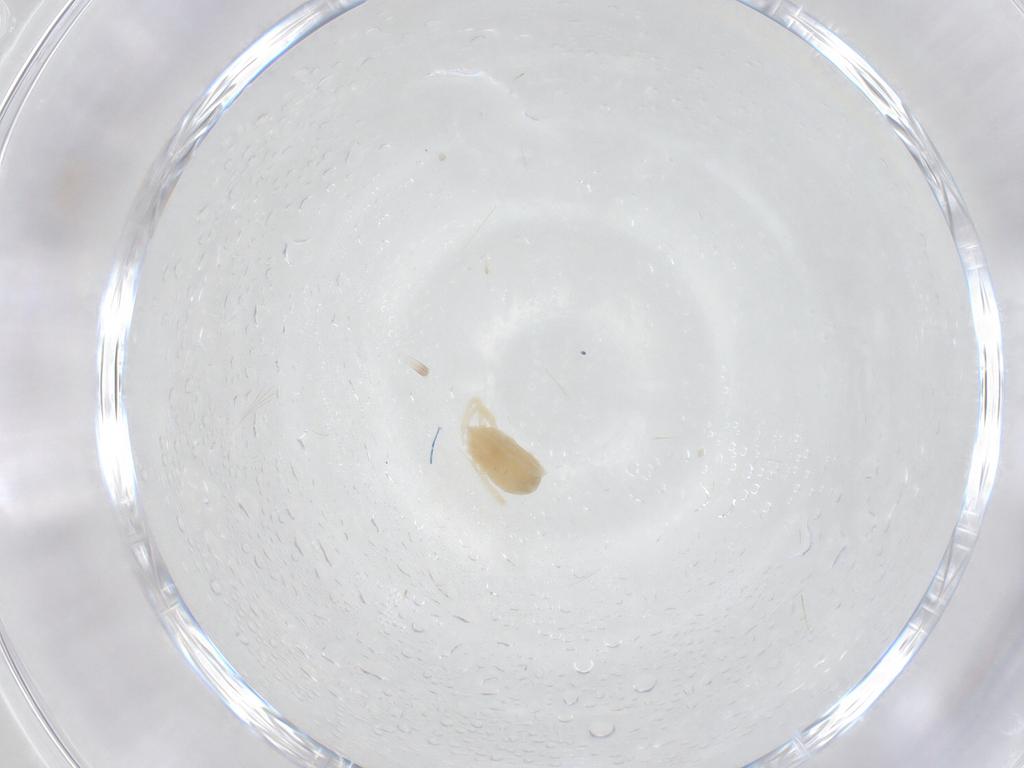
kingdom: Animalia
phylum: Arthropoda
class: Arachnida
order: Trombidiformes
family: Anystidae
